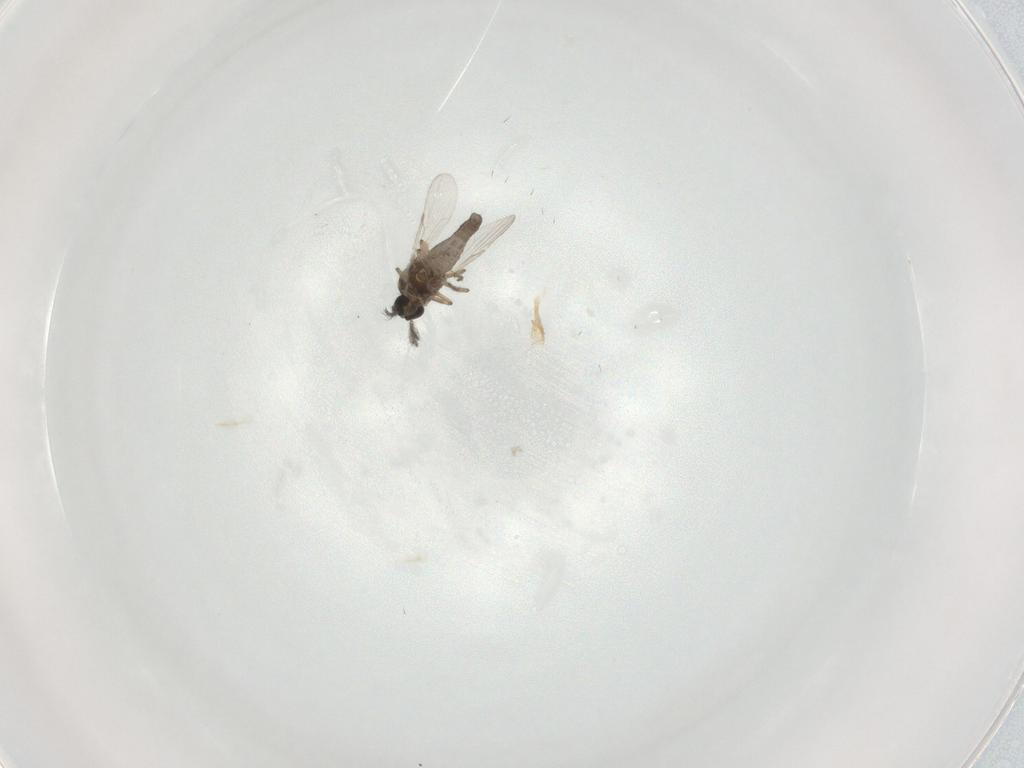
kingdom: Animalia
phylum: Arthropoda
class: Insecta
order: Diptera
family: Ceratopogonidae
